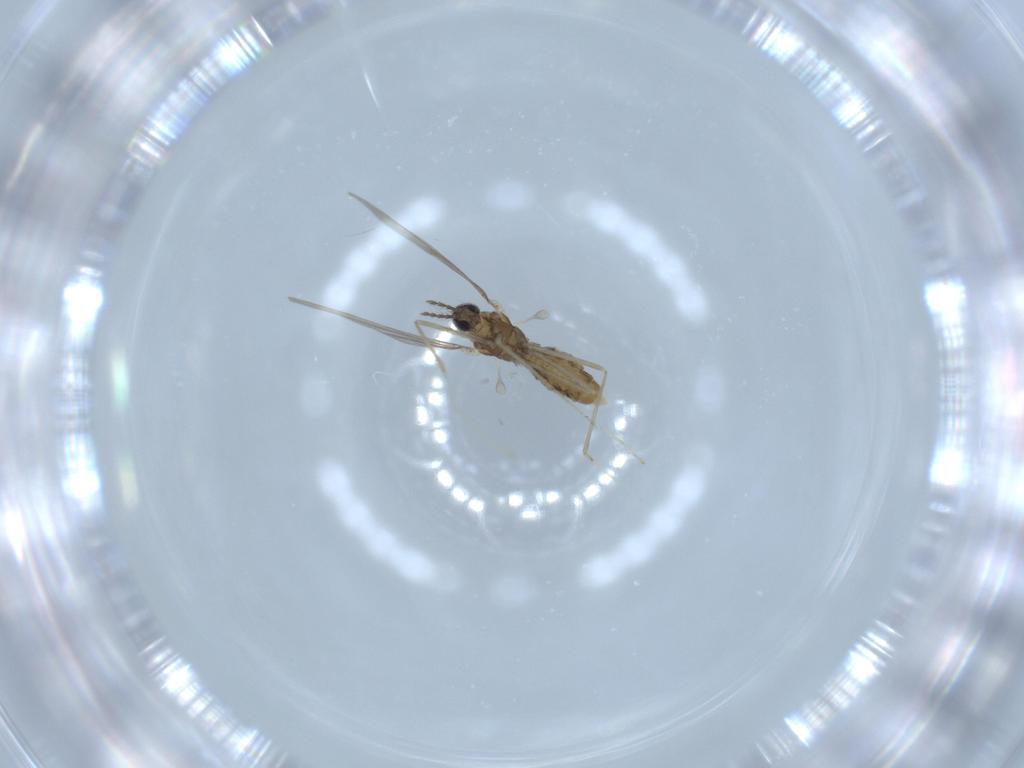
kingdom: Animalia
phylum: Arthropoda
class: Insecta
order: Diptera
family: Cecidomyiidae
